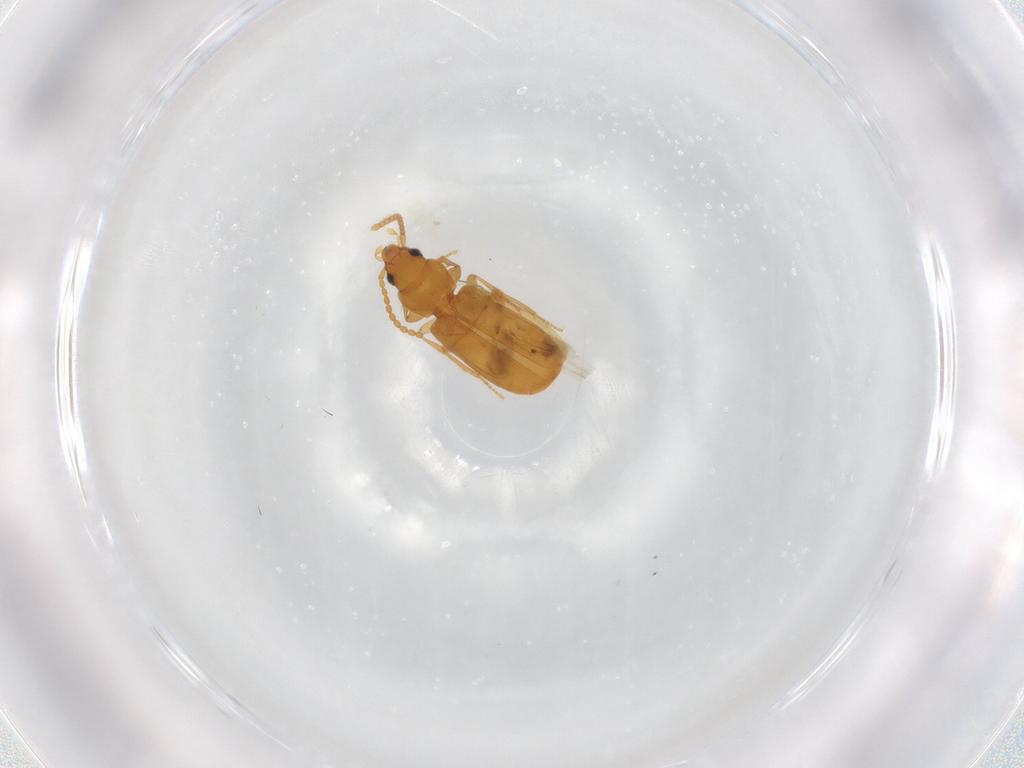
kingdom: Animalia
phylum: Arthropoda
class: Insecta
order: Coleoptera
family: Carabidae
